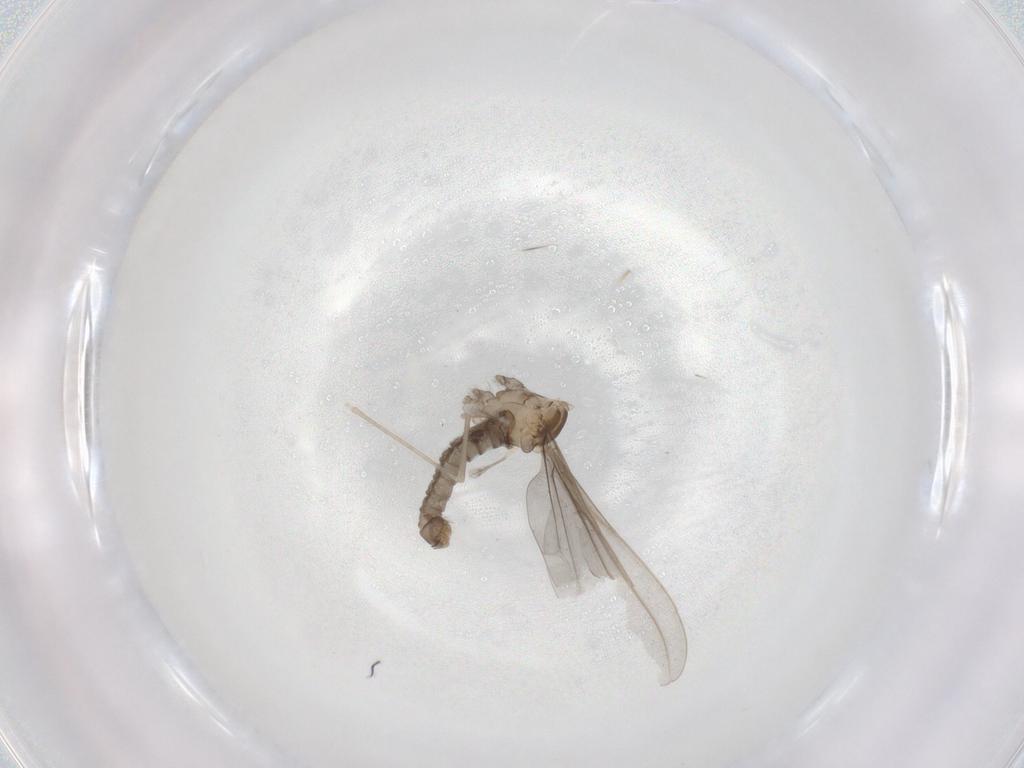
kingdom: Animalia
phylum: Arthropoda
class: Insecta
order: Diptera
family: Cecidomyiidae
